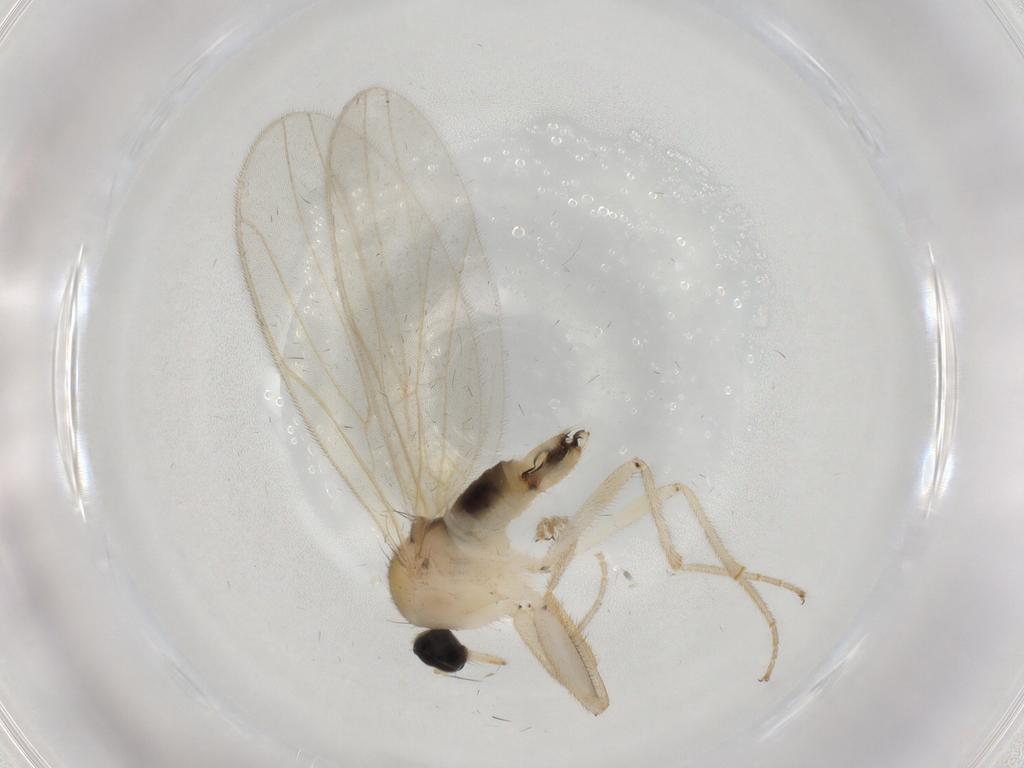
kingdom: Animalia
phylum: Arthropoda
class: Insecta
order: Diptera
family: Hybotidae
